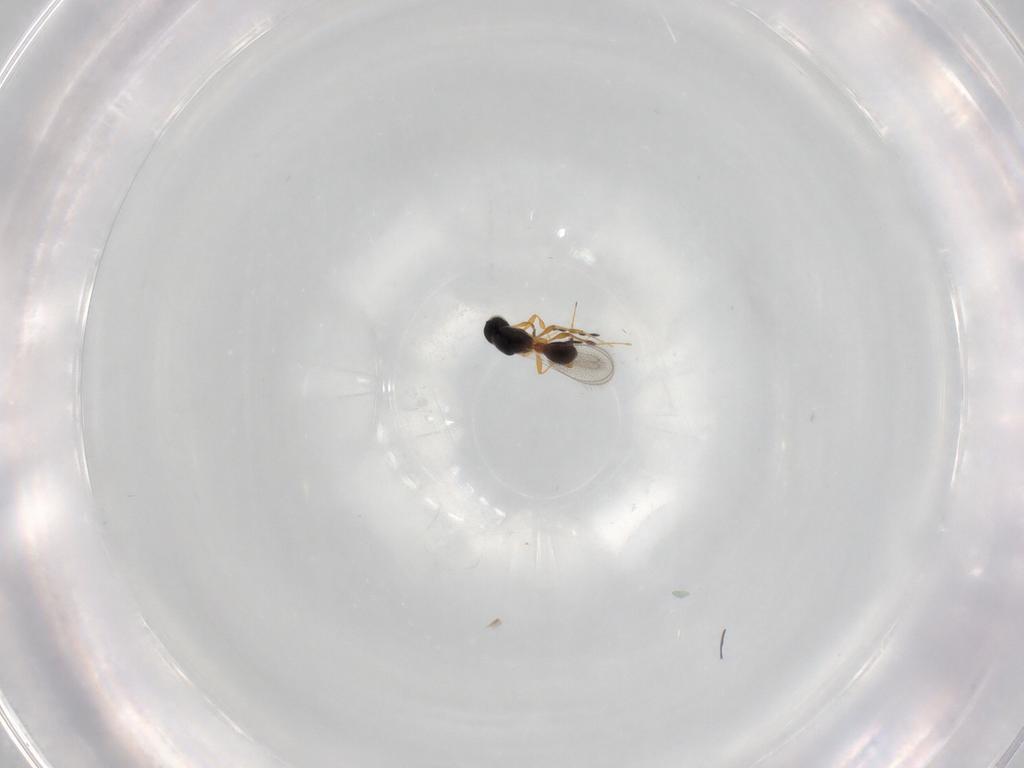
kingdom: Animalia
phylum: Arthropoda
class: Insecta
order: Hymenoptera
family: Platygastridae
